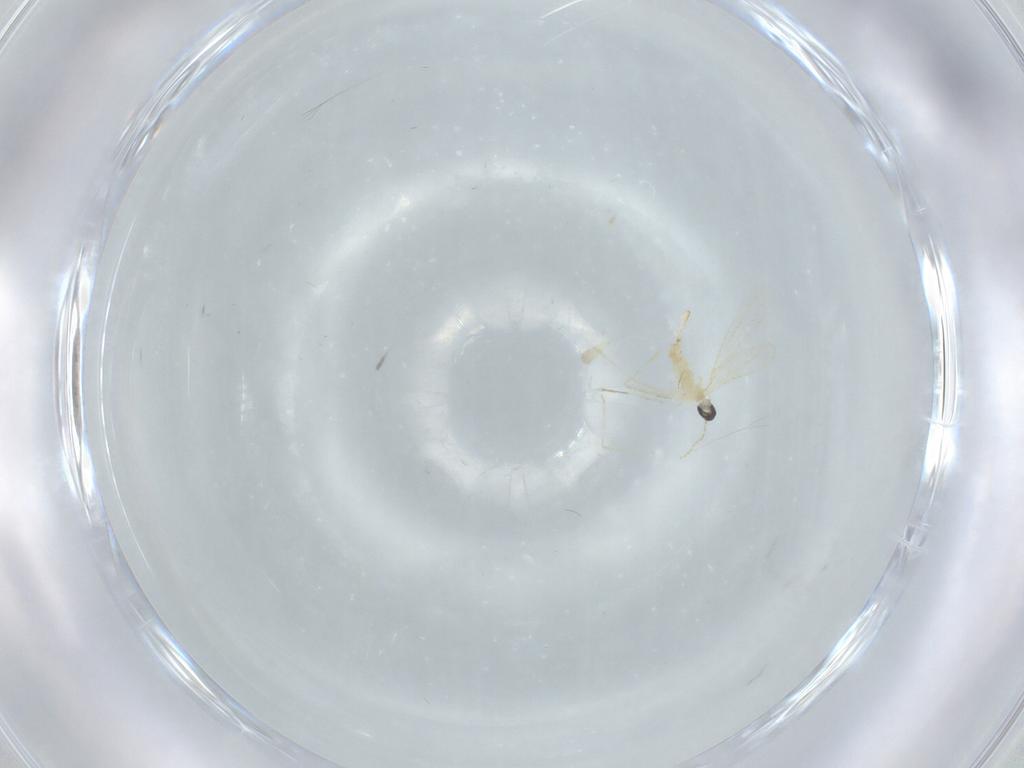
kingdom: Animalia
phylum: Arthropoda
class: Insecta
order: Diptera
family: Cecidomyiidae
